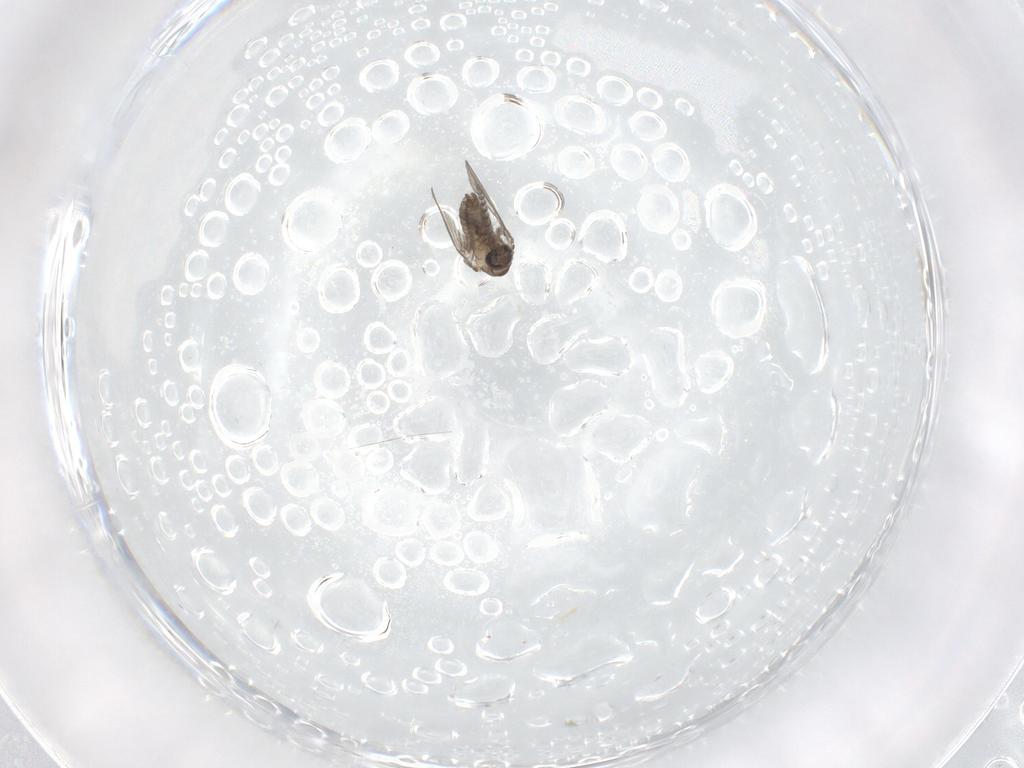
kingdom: Animalia
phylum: Arthropoda
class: Insecta
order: Diptera
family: Psychodidae
